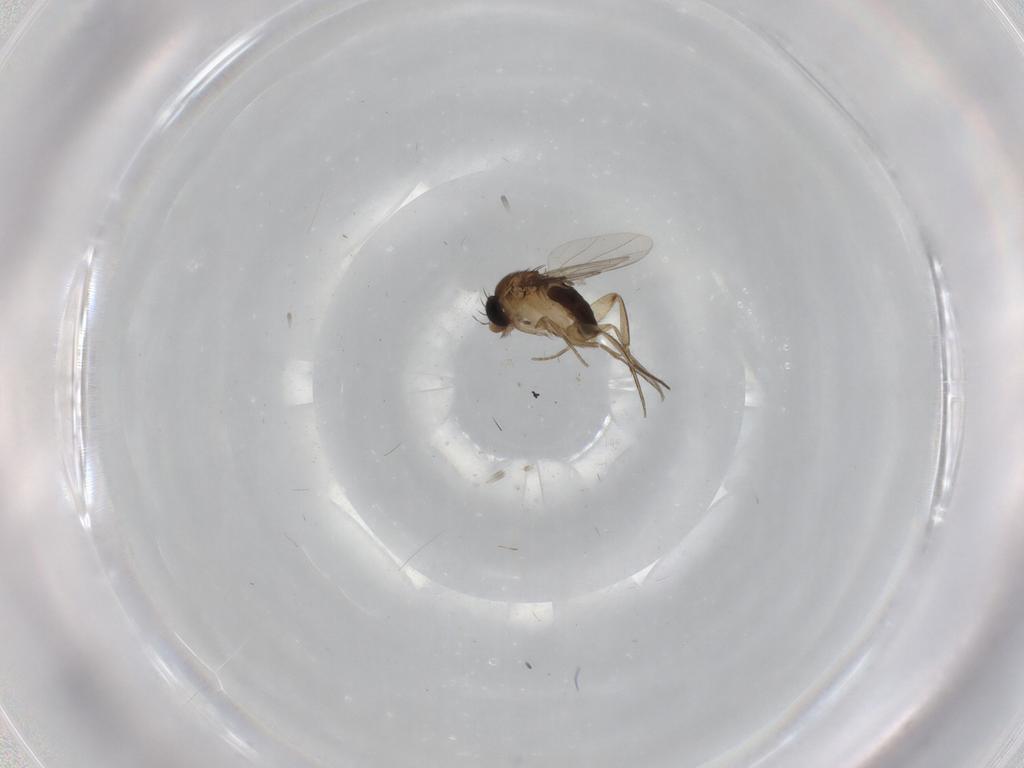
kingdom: Animalia
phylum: Arthropoda
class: Insecta
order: Diptera
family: Phoridae
